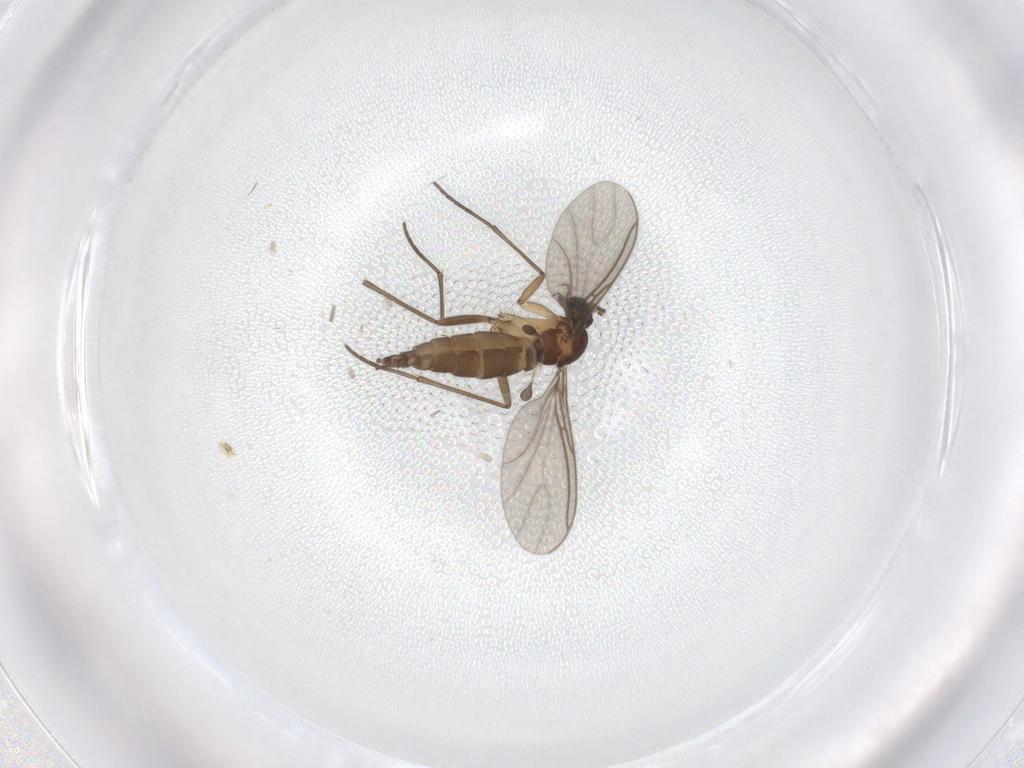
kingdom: Animalia
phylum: Arthropoda
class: Insecta
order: Diptera
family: Sciaridae
